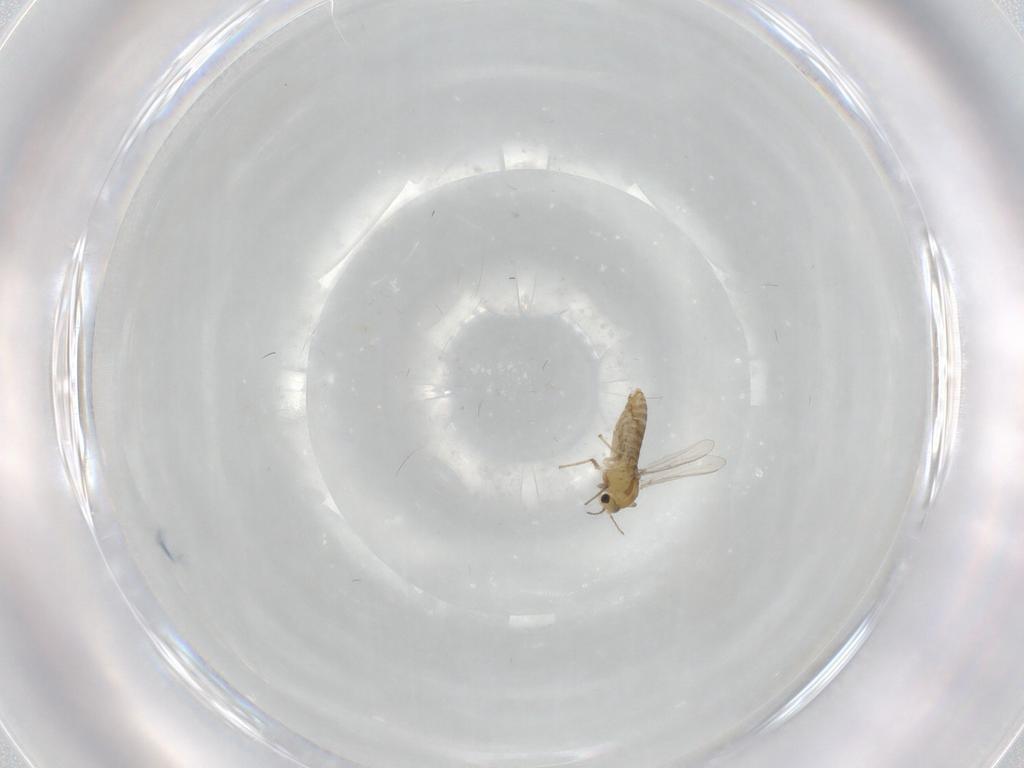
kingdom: Animalia
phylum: Arthropoda
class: Insecta
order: Diptera
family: Chironomidae
